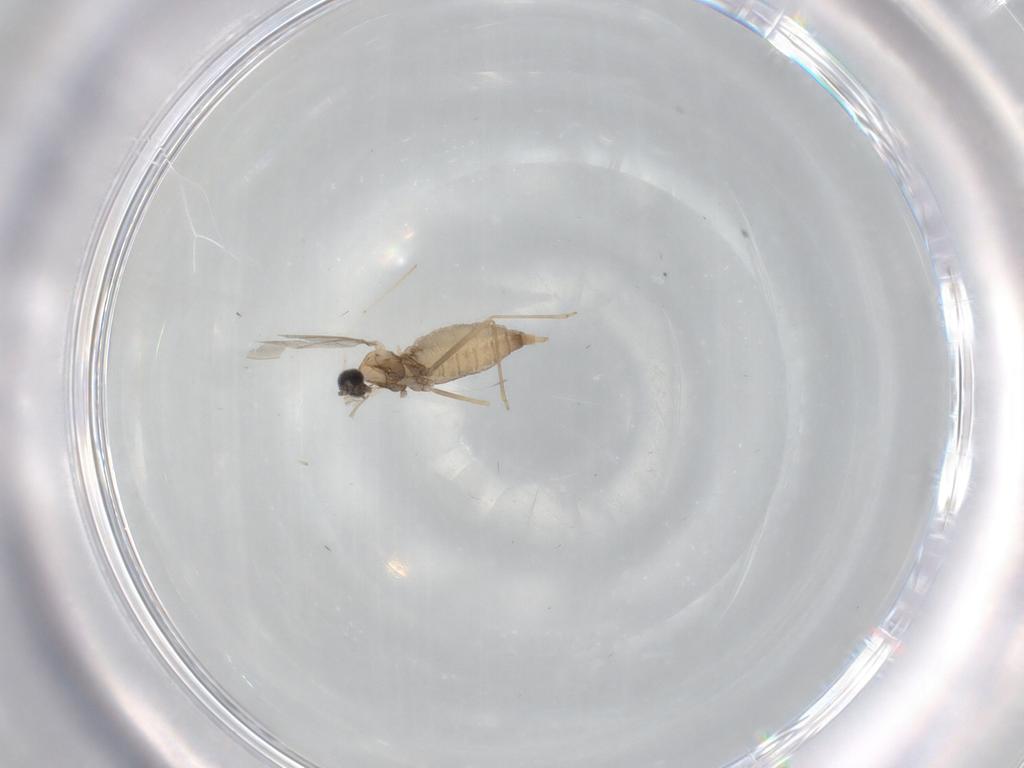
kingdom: Animalia
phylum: Arthropoda
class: Insecta
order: Diptera
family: Cecidomyiidae
